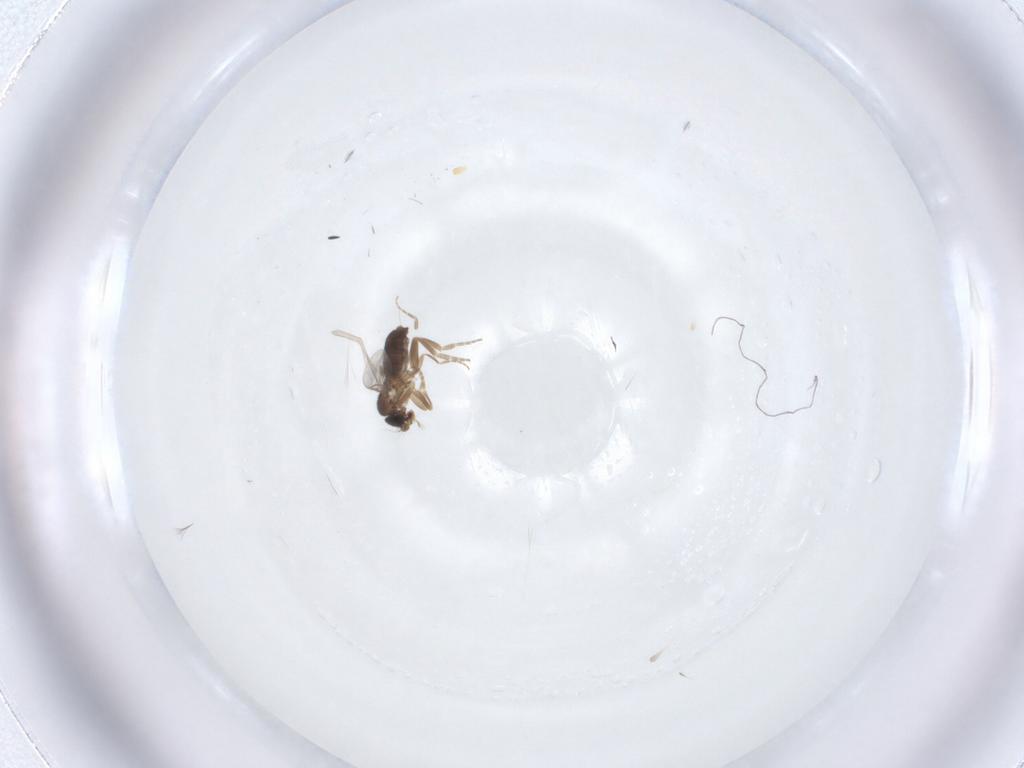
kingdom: Animalia
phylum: Arthropoda
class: Insecta
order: Diptera
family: Phoridae
